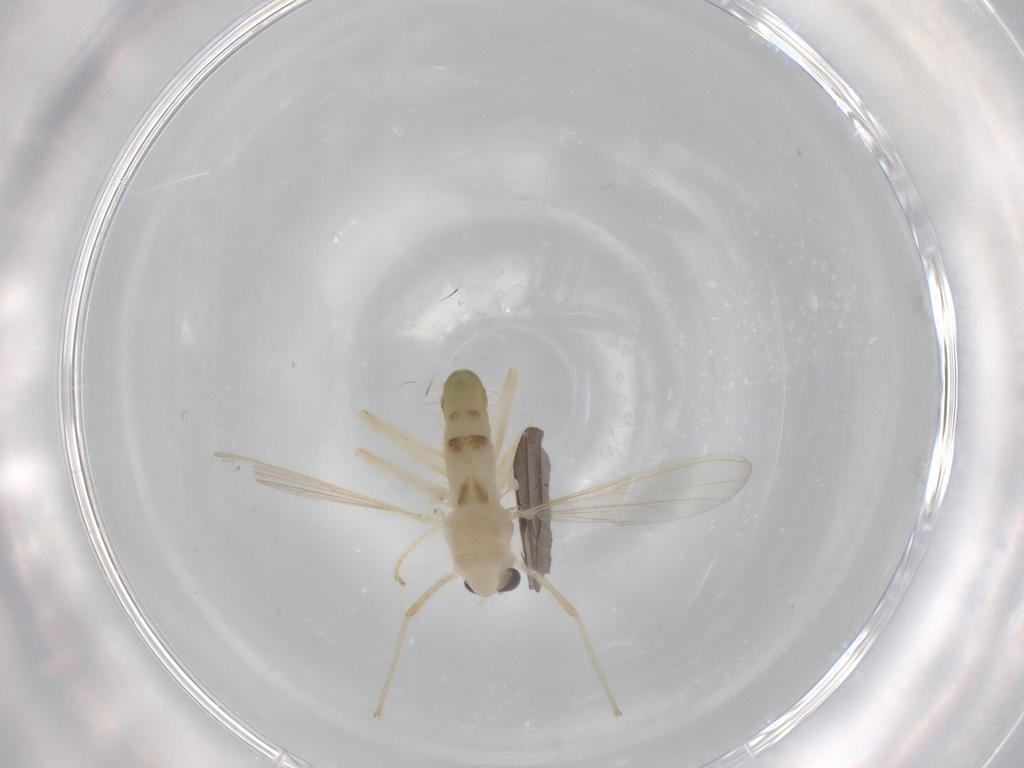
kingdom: Animalia
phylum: Arthropoda
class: Insecta
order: Diptera
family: Chironomidae
